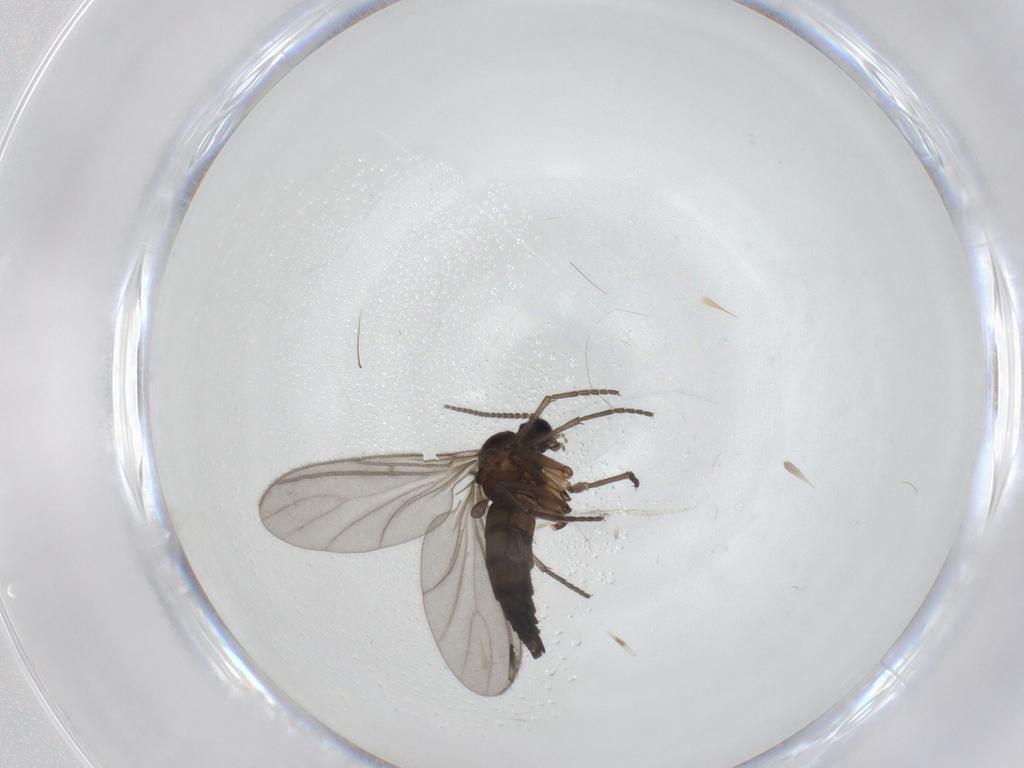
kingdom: Animalia
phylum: Arthropoda
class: Insecta
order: Diptera
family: Sciaridae
